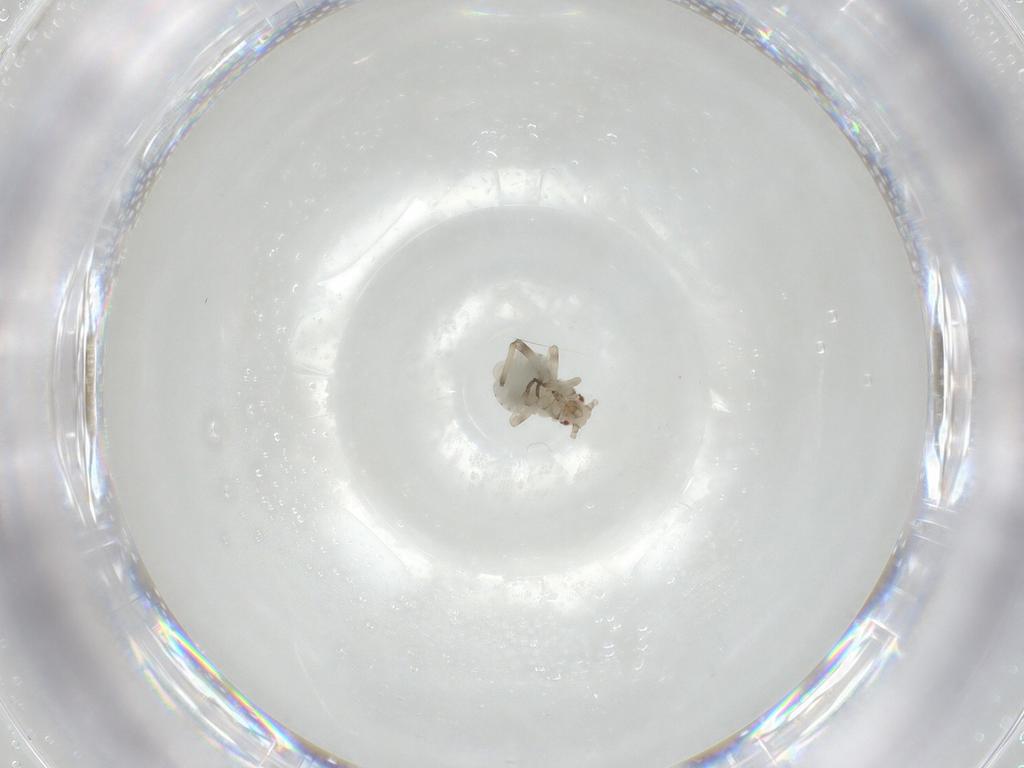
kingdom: Animalia
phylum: Arthropoda
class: Insecta
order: Hemiptera
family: Aphididae
